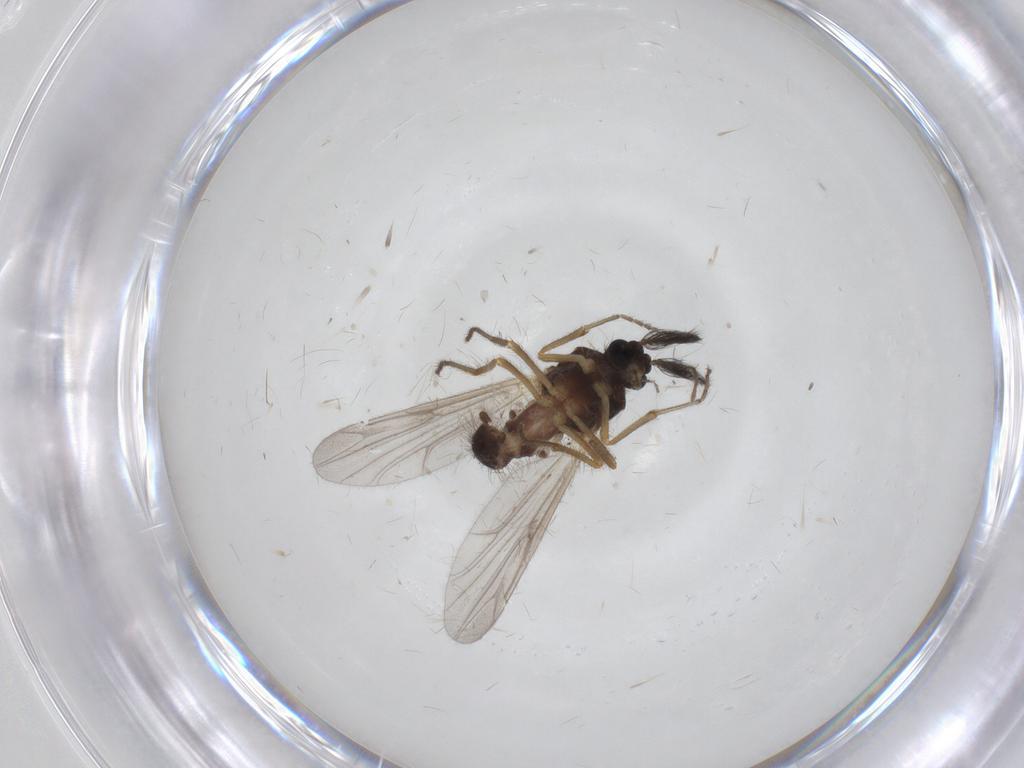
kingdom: Animalia
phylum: Arthropoda
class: Insecta
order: Diptera
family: Ceratopogonidae
